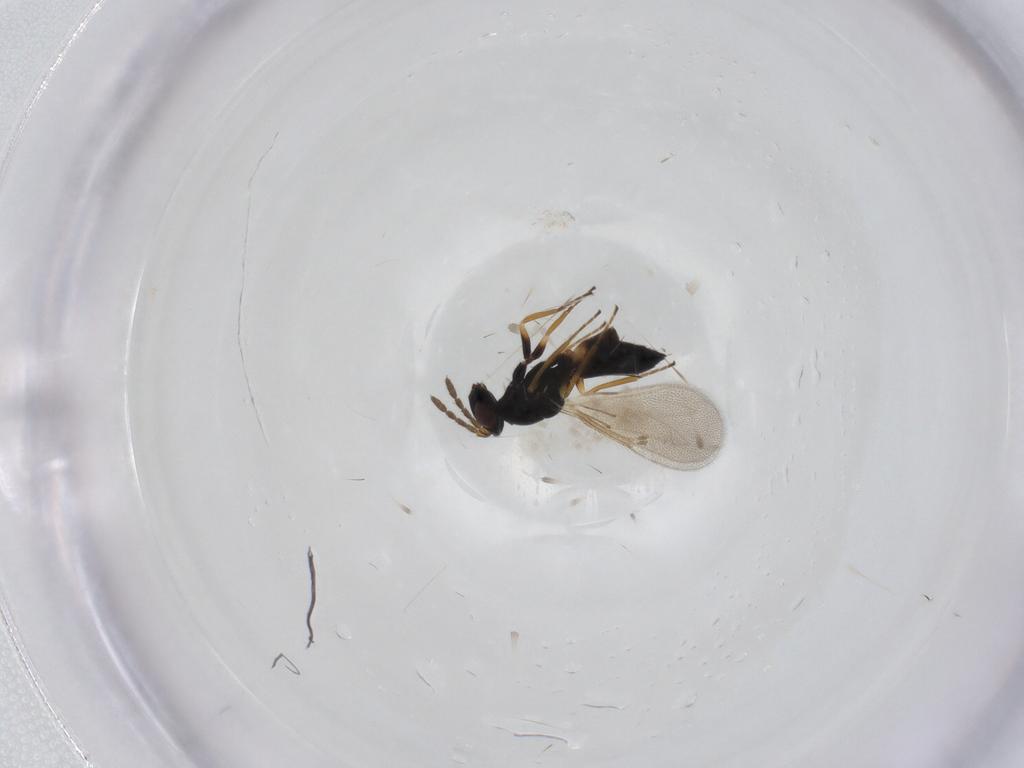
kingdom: Animalia
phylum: Arthropoda
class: Insecta
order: Hymenoptera
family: Eulophidae
